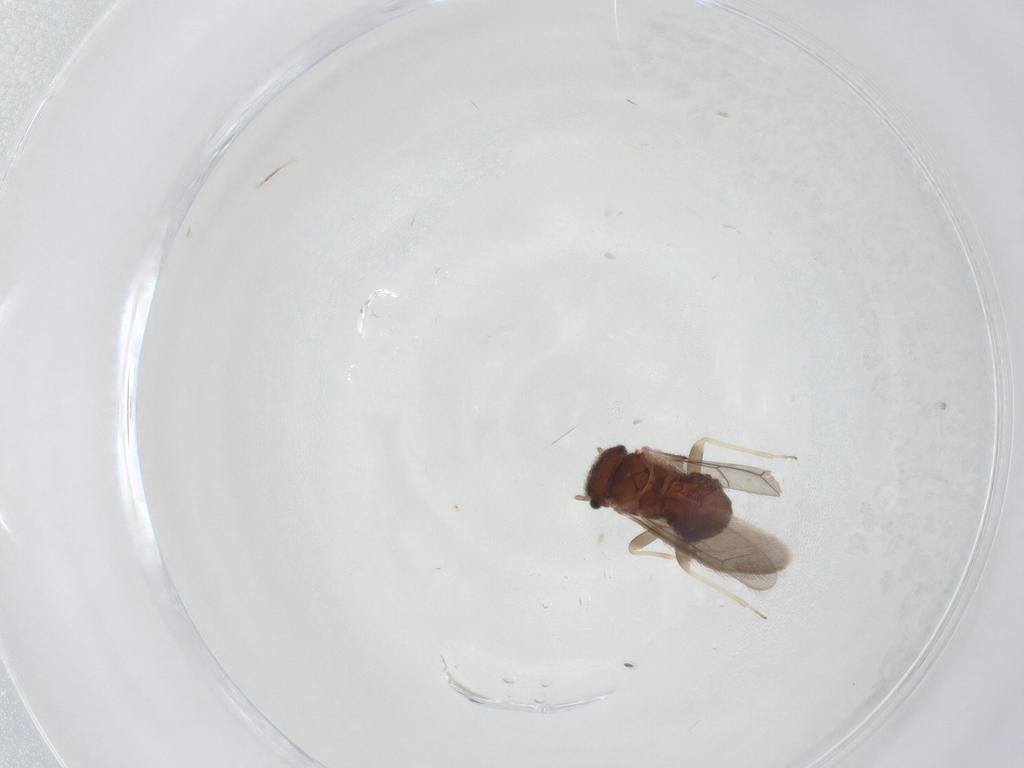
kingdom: Animalia
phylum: Arthropoda
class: Insecta
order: Psocodea
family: Archipsocidae
